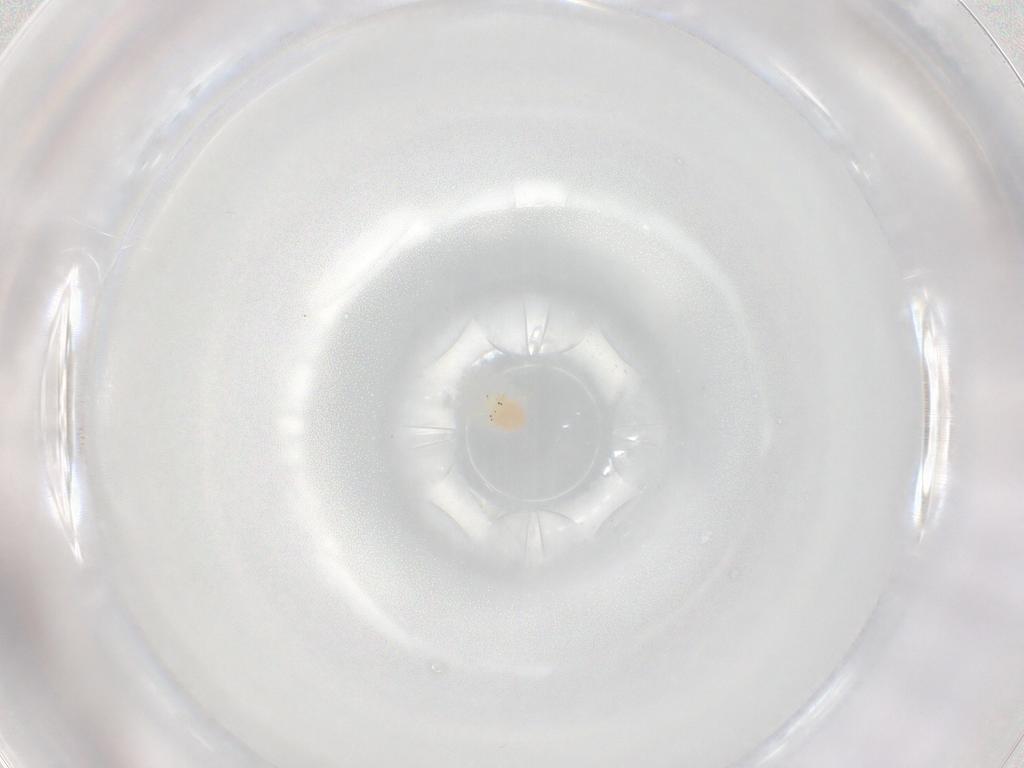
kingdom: Animalia
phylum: Arthropoda
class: Arachnida
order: Trombidiformes
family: Hydryphantidae
